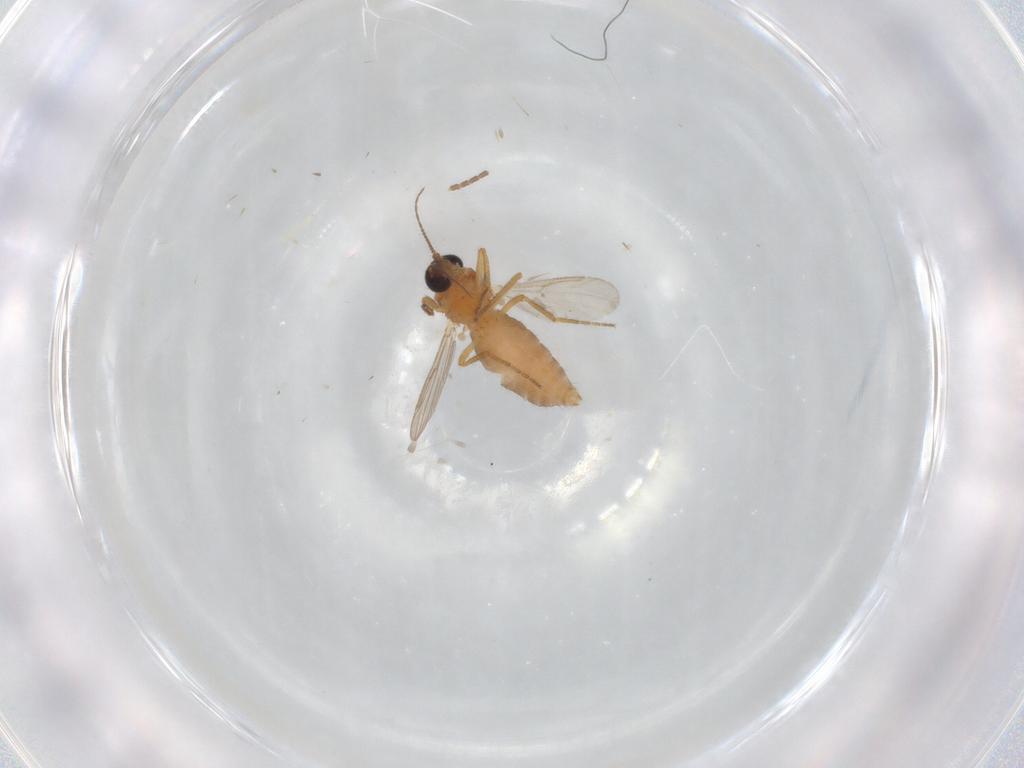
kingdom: Animalia
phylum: Arthropoda
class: Insecta
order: Diptera
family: Ceratopogonidae
